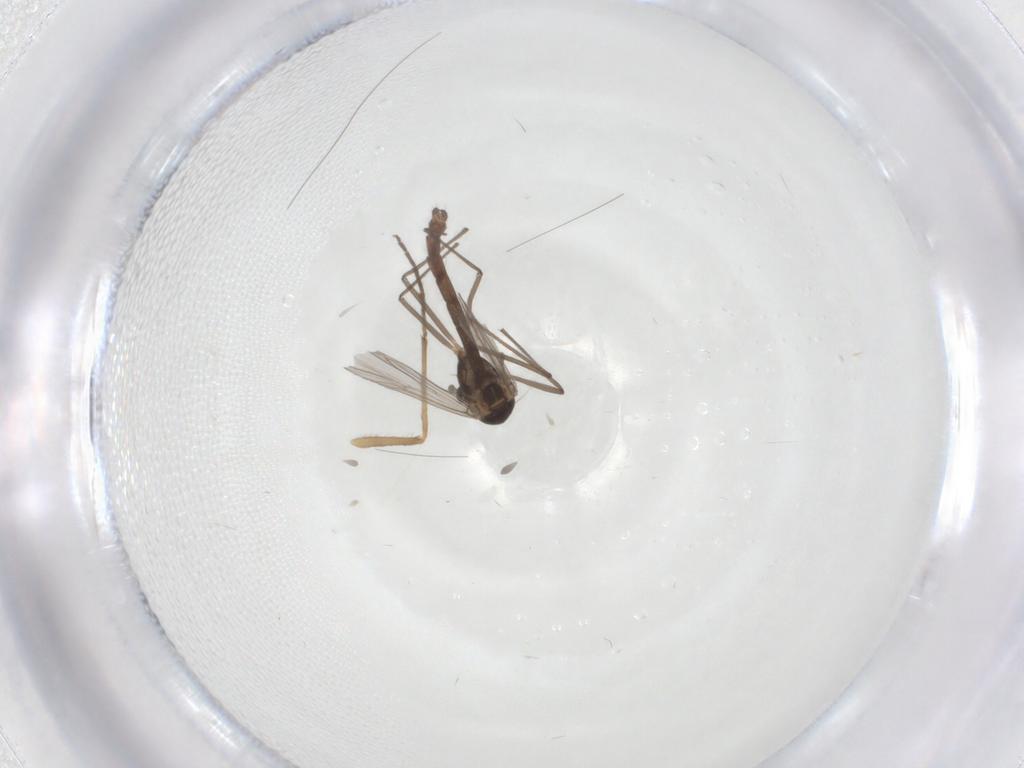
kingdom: Animalia
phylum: Arthropoda
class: Insecta
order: Diptera
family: Chironomidae
